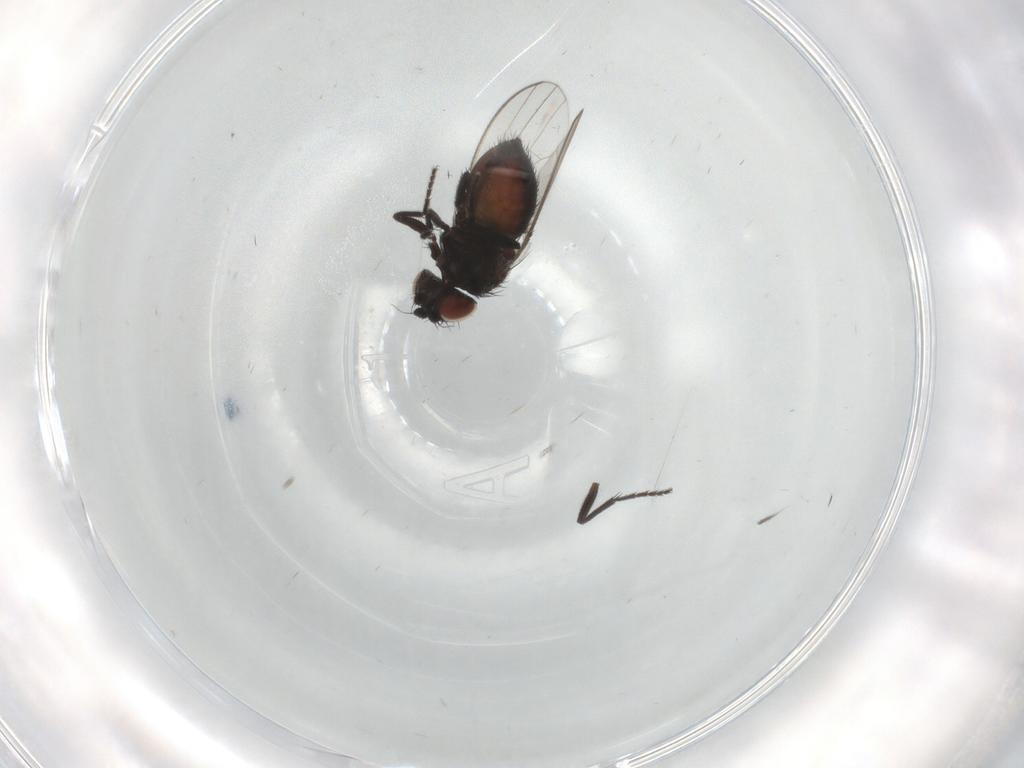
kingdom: Animalia
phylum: Arthropoda
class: Insecta
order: Diptera
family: Milichiidae
